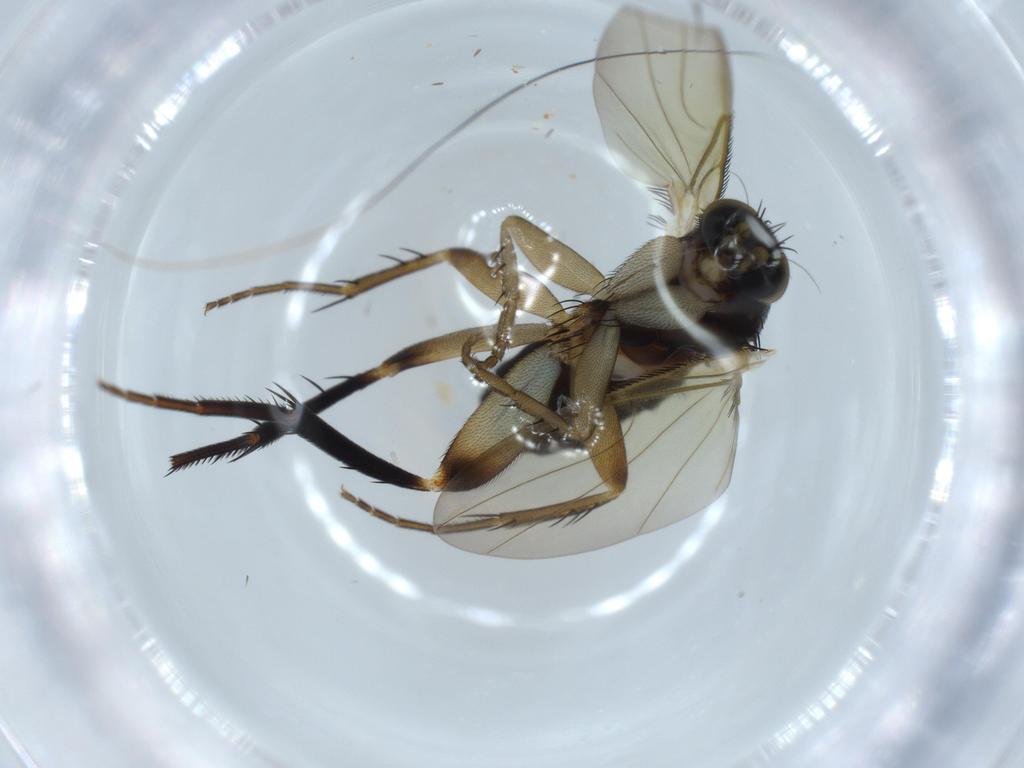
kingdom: Animalia
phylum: Arthropoda
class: Insecta
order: Diptera
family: Phoridae
